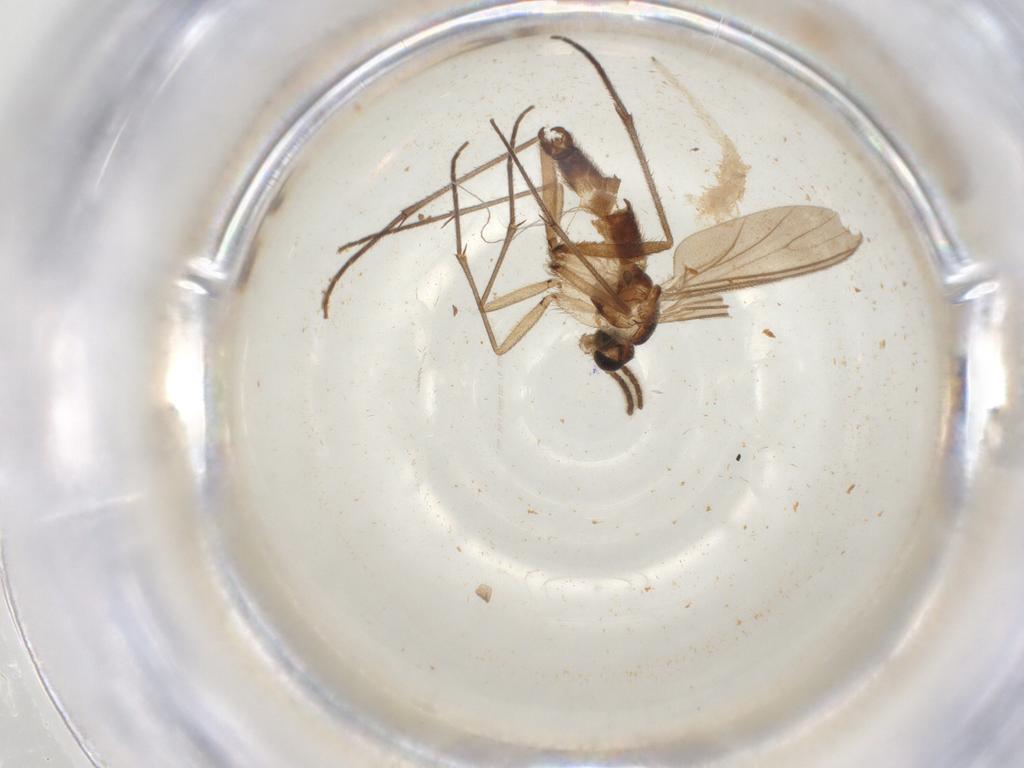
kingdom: Animalia
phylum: Arthropoda
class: Insecta
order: Diptera
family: Sciaridae
